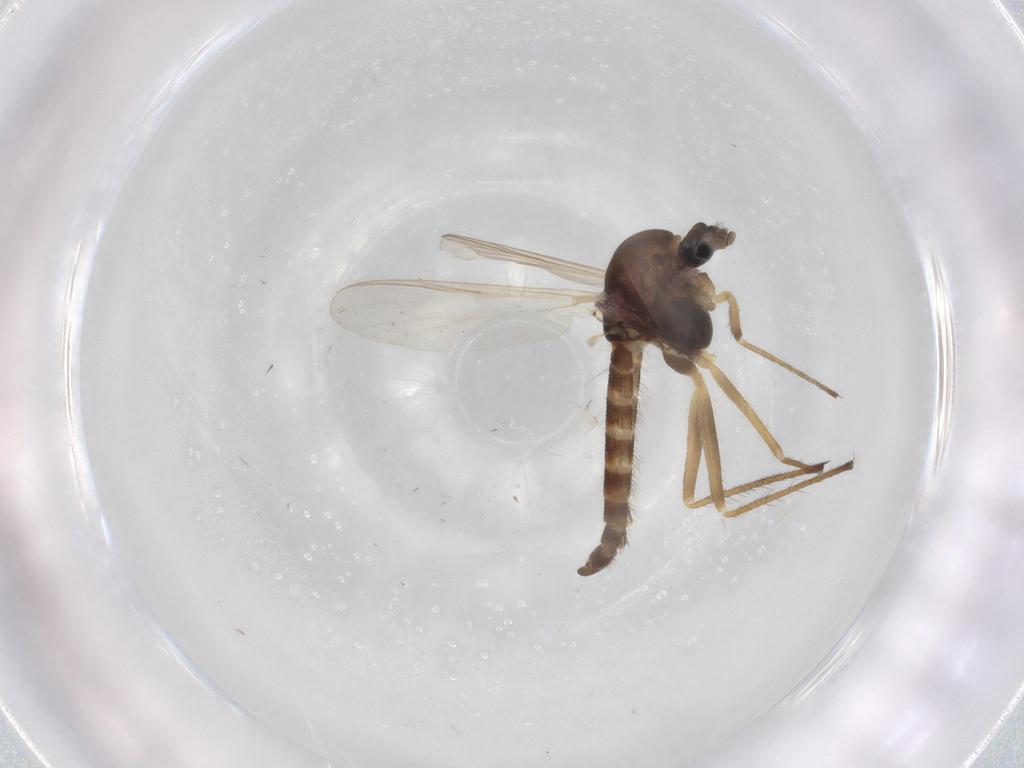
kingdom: Animalia
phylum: Arthropoda
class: Insecta
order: Diptera
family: Chironomidae
